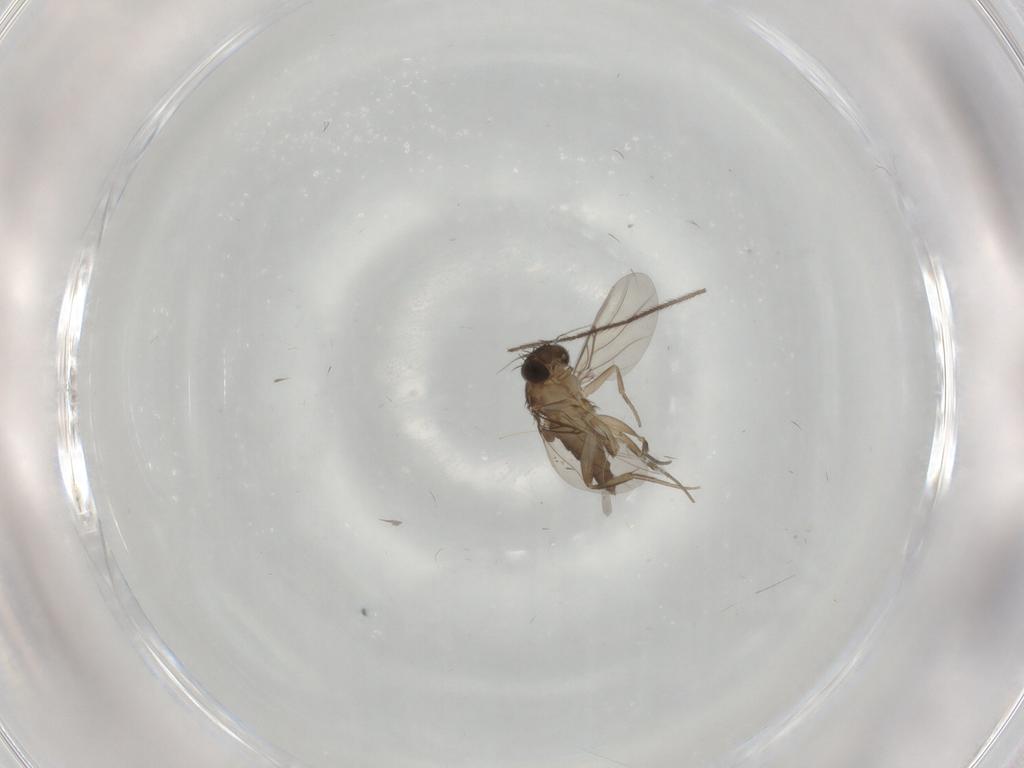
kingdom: Animalia
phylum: Arthropoda
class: Insecta
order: Diptera
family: Phoridae
